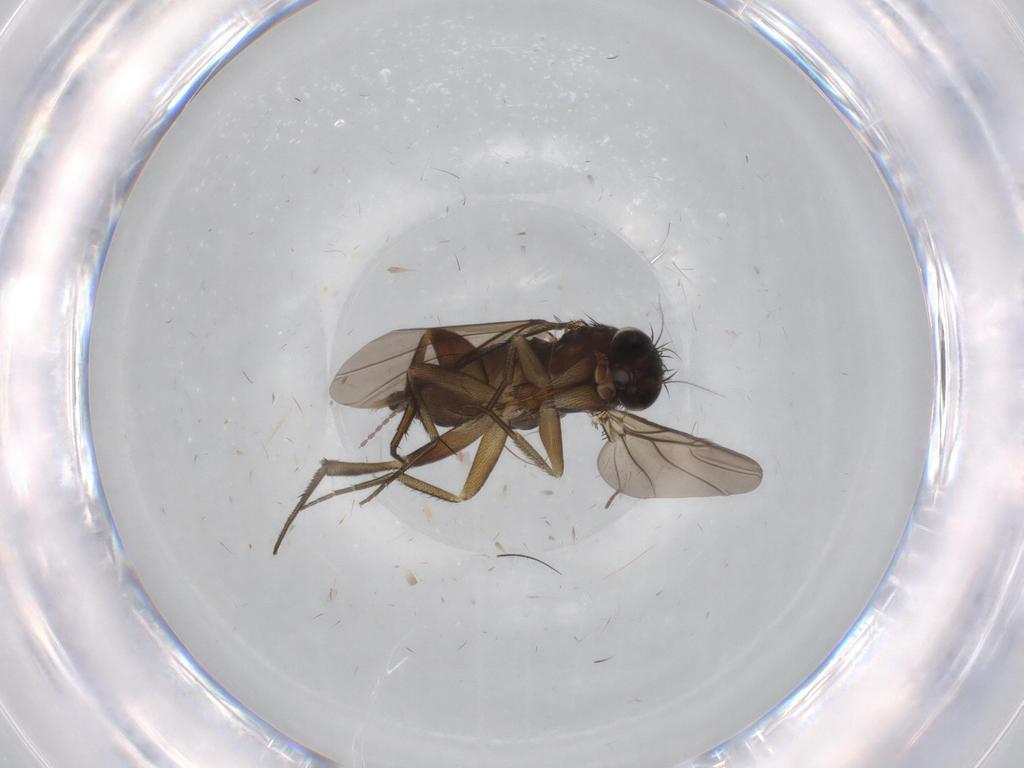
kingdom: Animalia
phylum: Arthropoda
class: Insecta
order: Diptera
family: Phoridae
